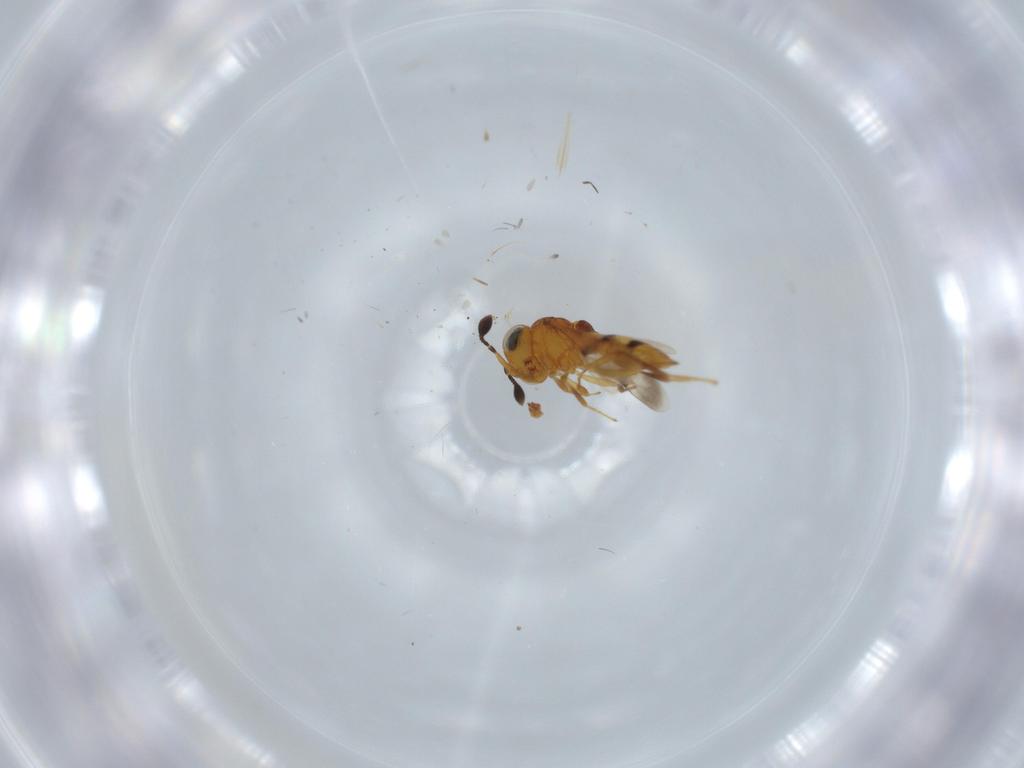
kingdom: Animalia
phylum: Arthropoda
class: Insecta
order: Hymenoptera
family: Scelionidae
